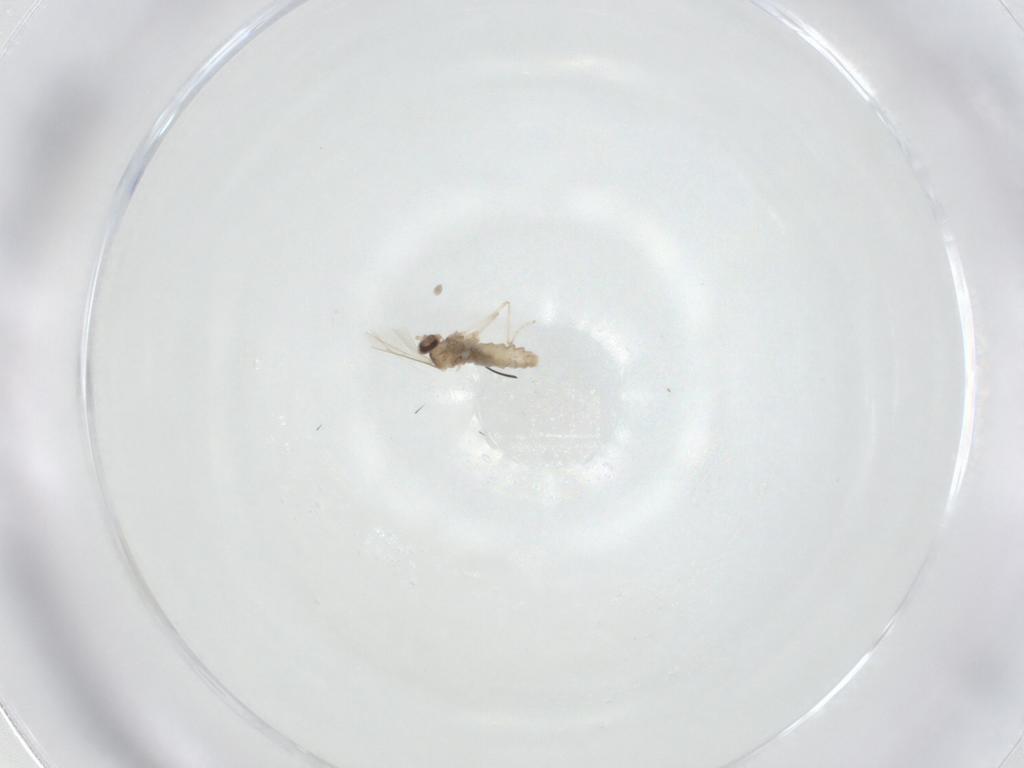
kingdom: Animalia
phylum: Arthropoda
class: Insecta
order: Diptera
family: Cecidomyiidae
